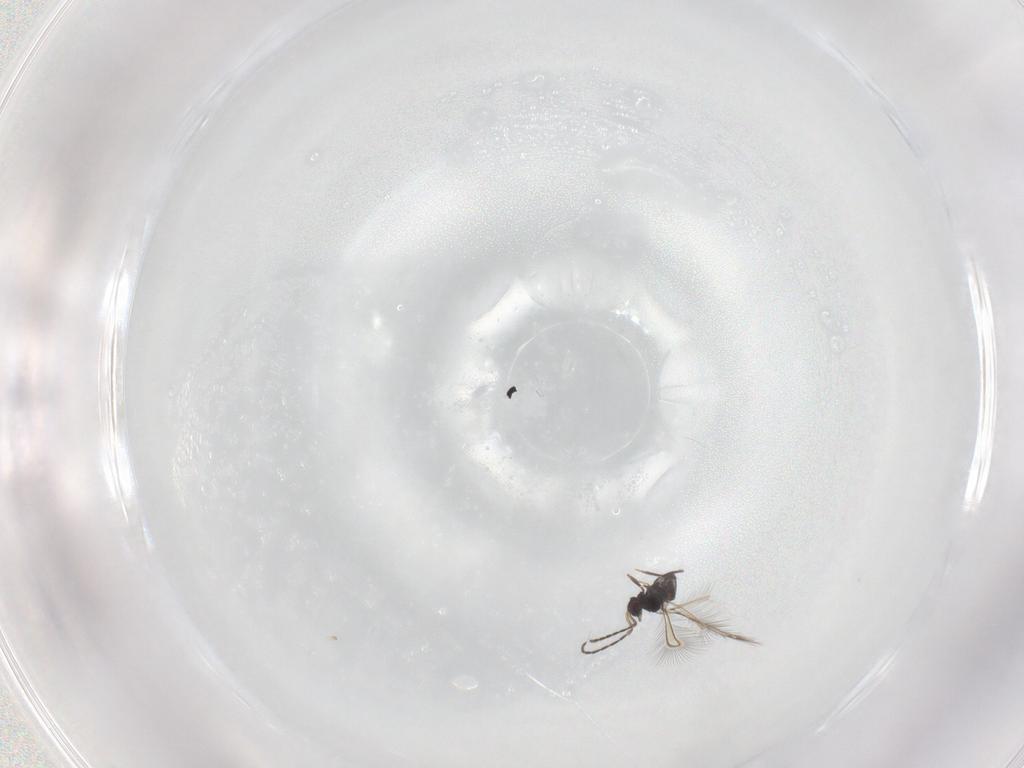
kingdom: Animalia
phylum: Arthropoda
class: Insecta
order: Hymenoptera
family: Mymaridae
